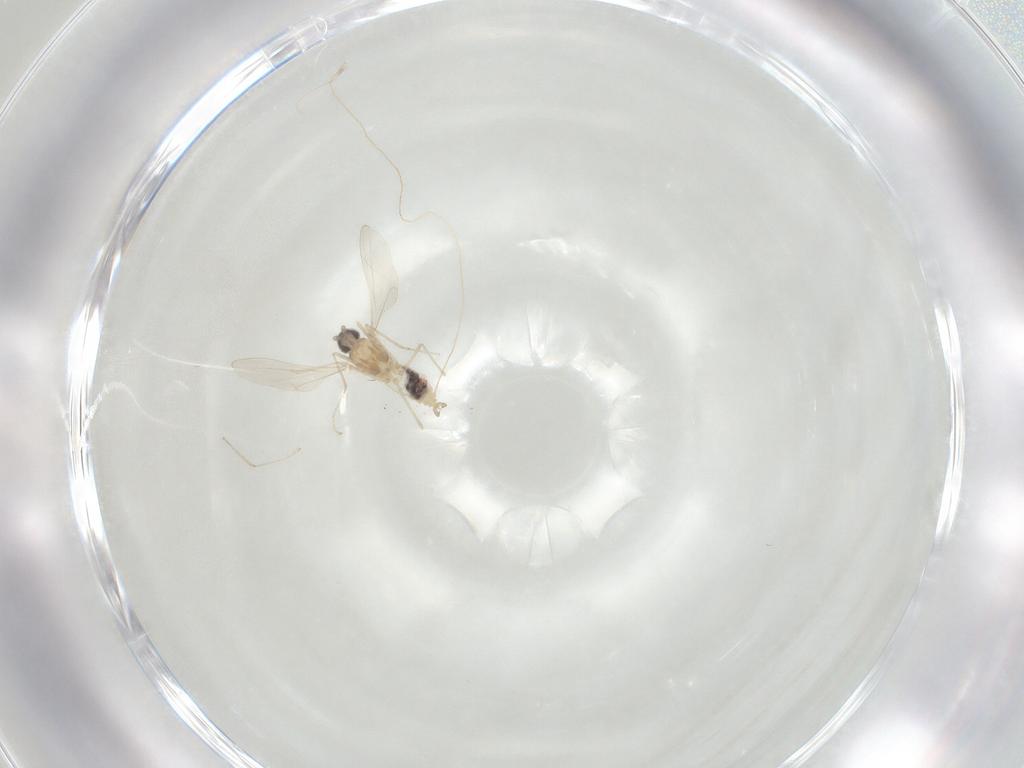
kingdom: Animalia
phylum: Arthropoda
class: Insecta
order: Diptera
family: Cecidomyiidae
